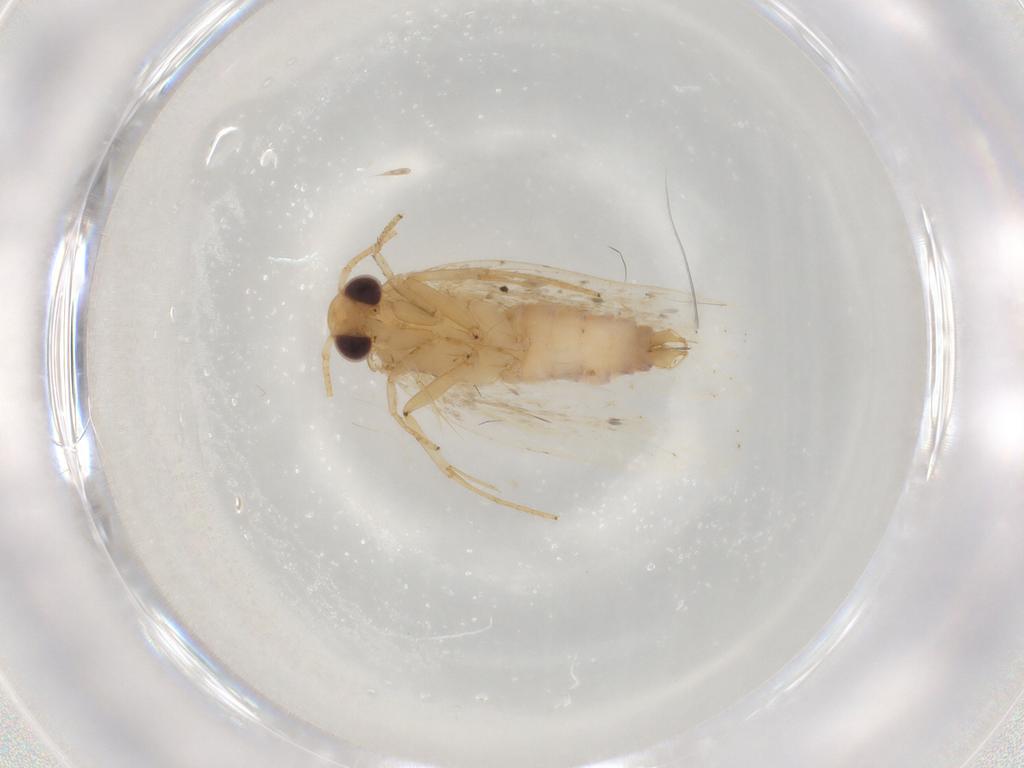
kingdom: Animalia
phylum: Arthropoda
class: Insecta
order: Lepidoptera
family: Depressariidae
